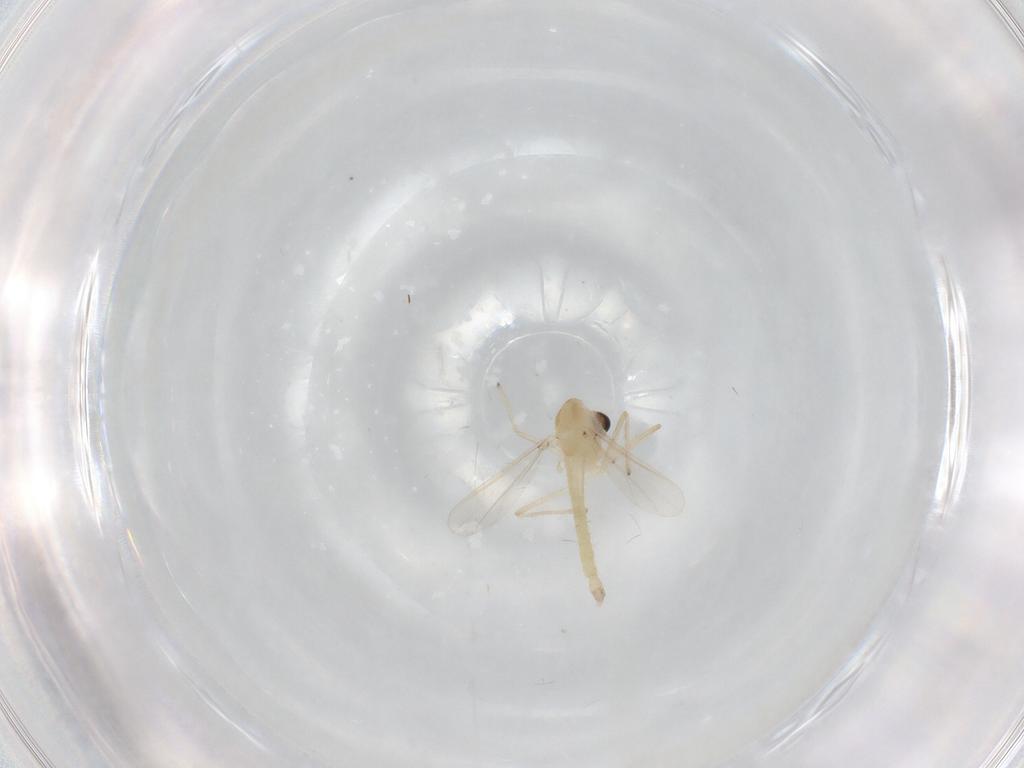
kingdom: Animalia
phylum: Arthropoda
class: Insecta
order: Diptera
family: Chironomidae
